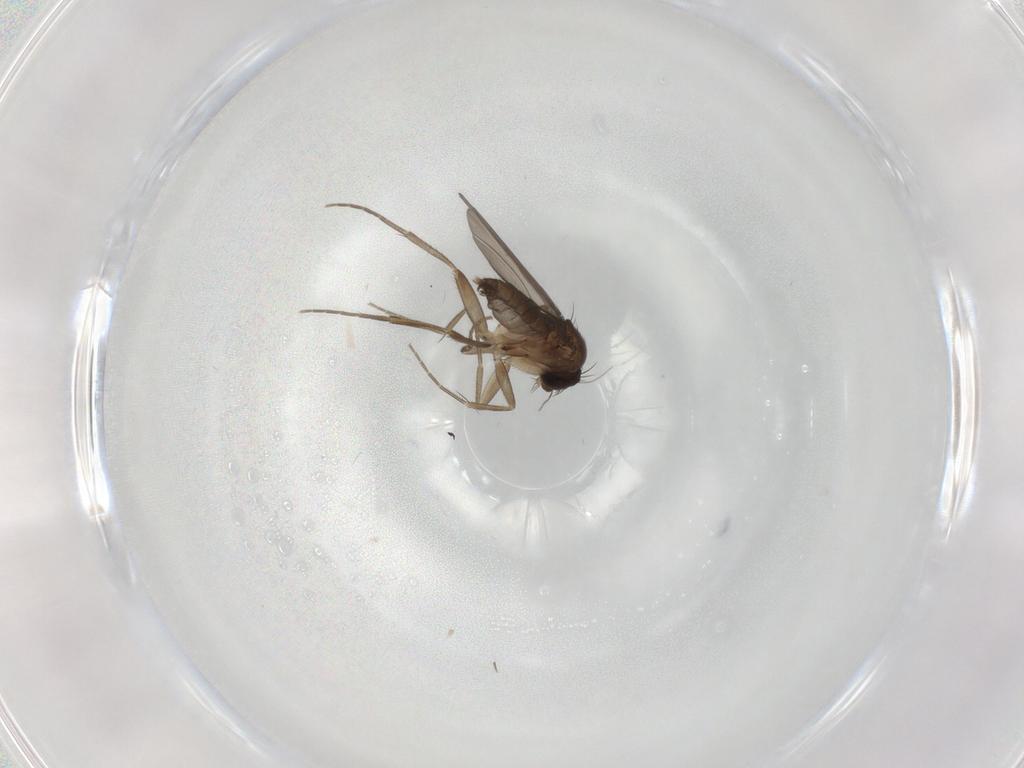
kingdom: Animalia
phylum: Arthropoda
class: Insecta
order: Diptera
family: Phoridae
